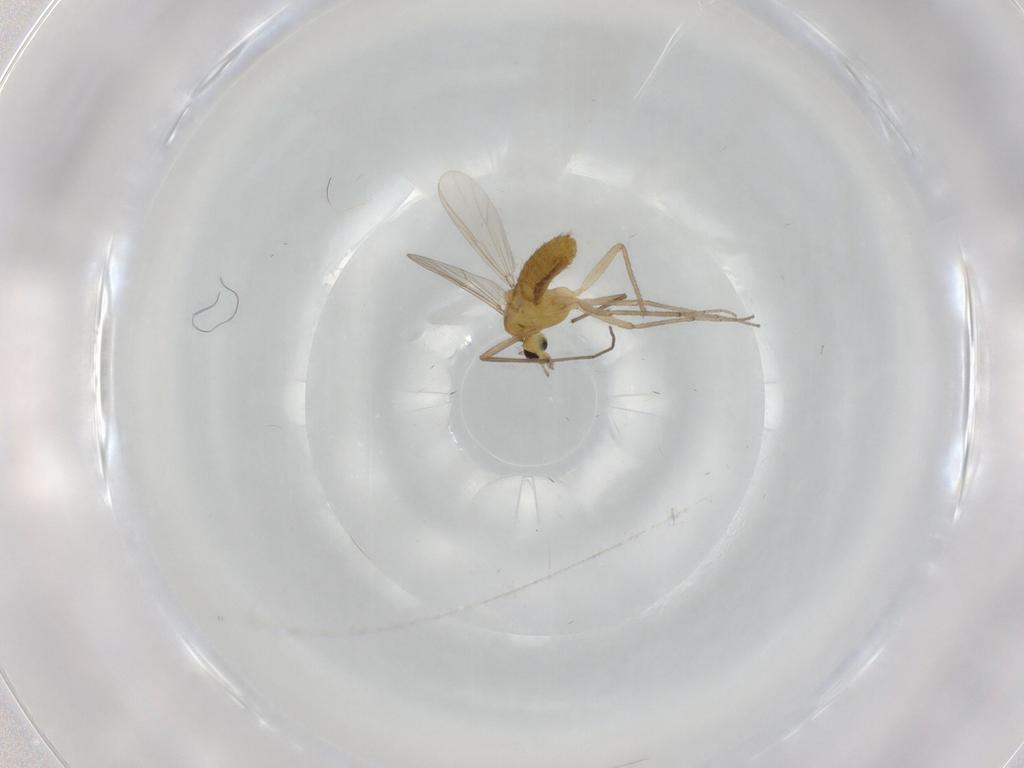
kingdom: Animalia
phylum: Arthropoda
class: Insecta
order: Diptera
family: Chironomidae
